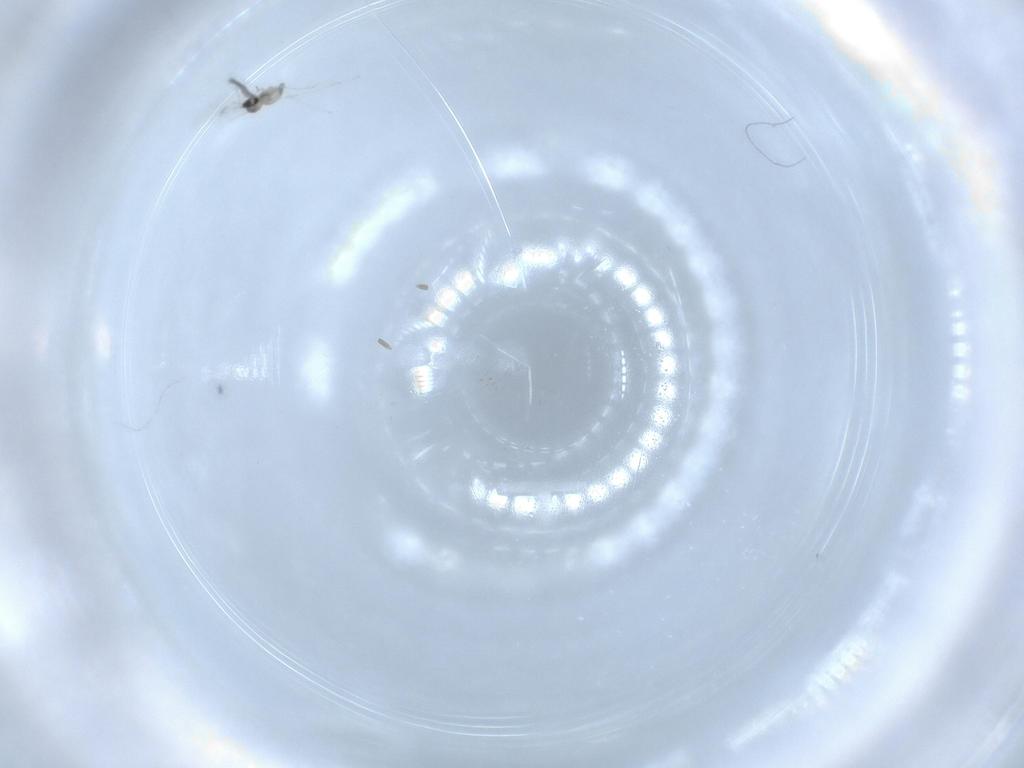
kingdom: Animalia
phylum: Arthropoda
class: Insecta
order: Diptera
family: Cecidomyiidae
